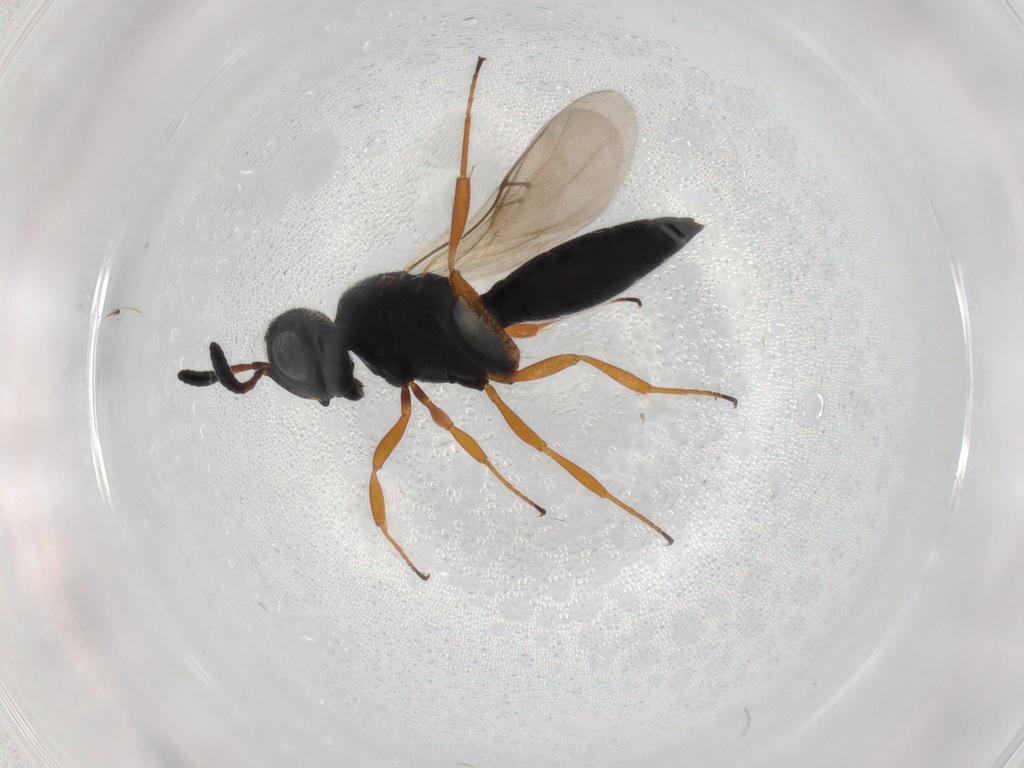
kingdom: Animalia
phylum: Arthropoda
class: Insecta
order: Hymenoptera
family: Scelionidae
